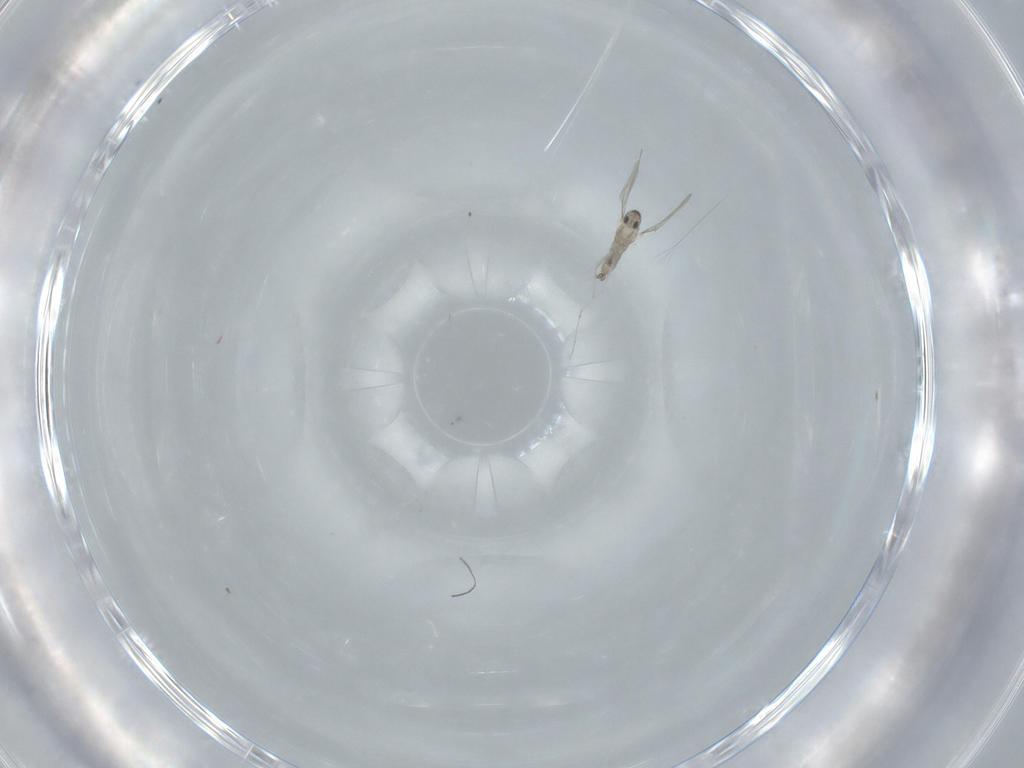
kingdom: Animalia
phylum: Arthropoda
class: Insecta
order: Diptera
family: Cecidomyiidae
